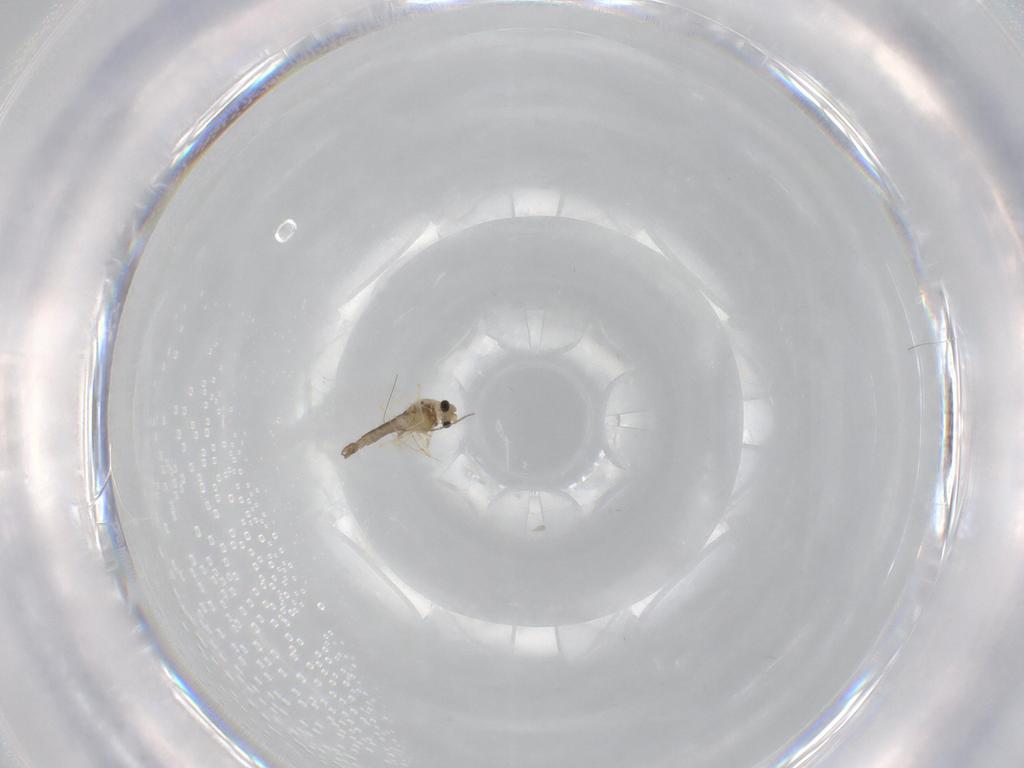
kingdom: Animalia
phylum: Arthropoda
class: Insecta
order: Diptera
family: Chironomidae
